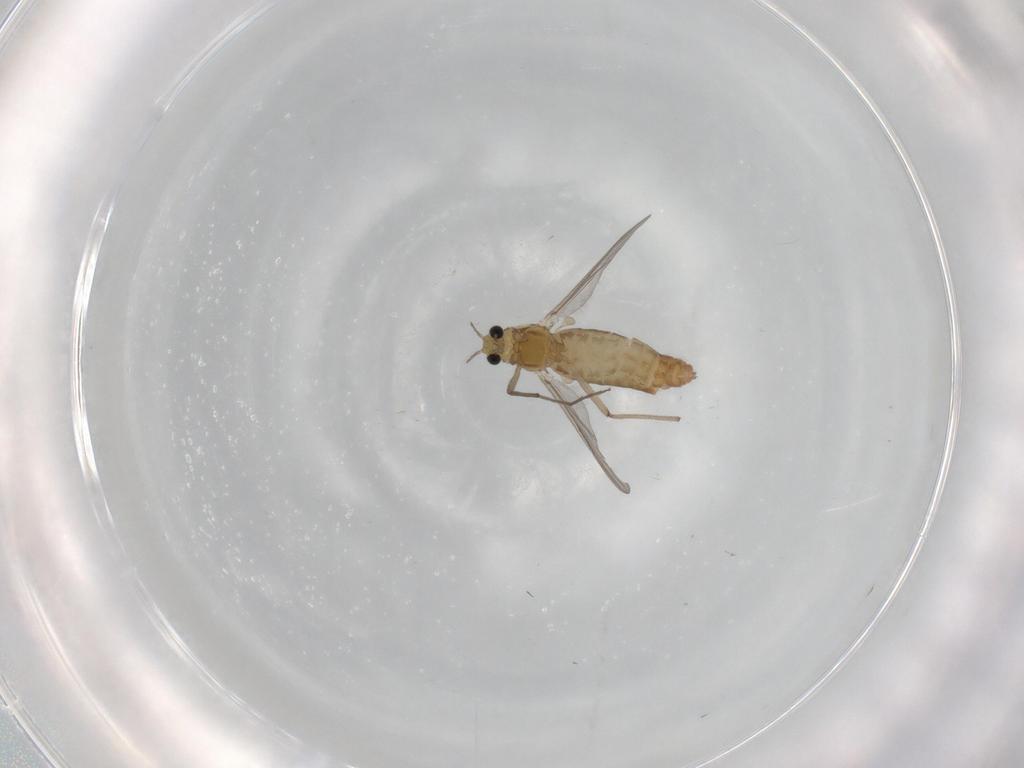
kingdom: Animalia
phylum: Arthropoda
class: Insecta
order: Diptera
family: Chironomidae
